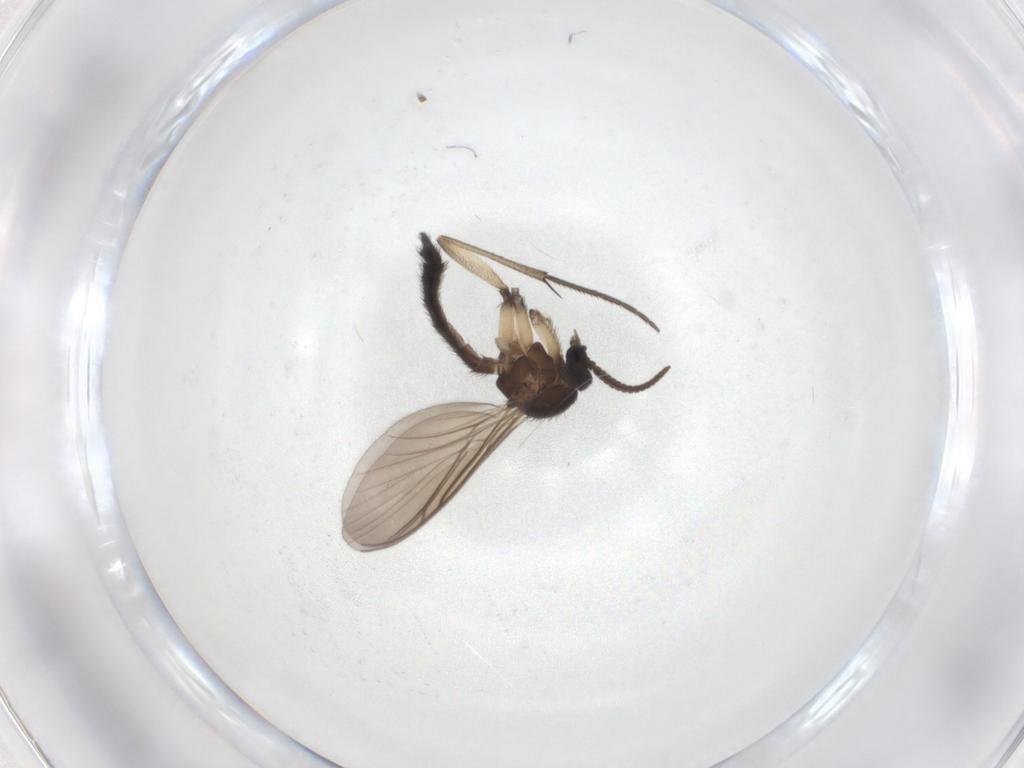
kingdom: Animalia
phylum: Arthropoda
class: Insecta
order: Diptera
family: Keroplatidae
